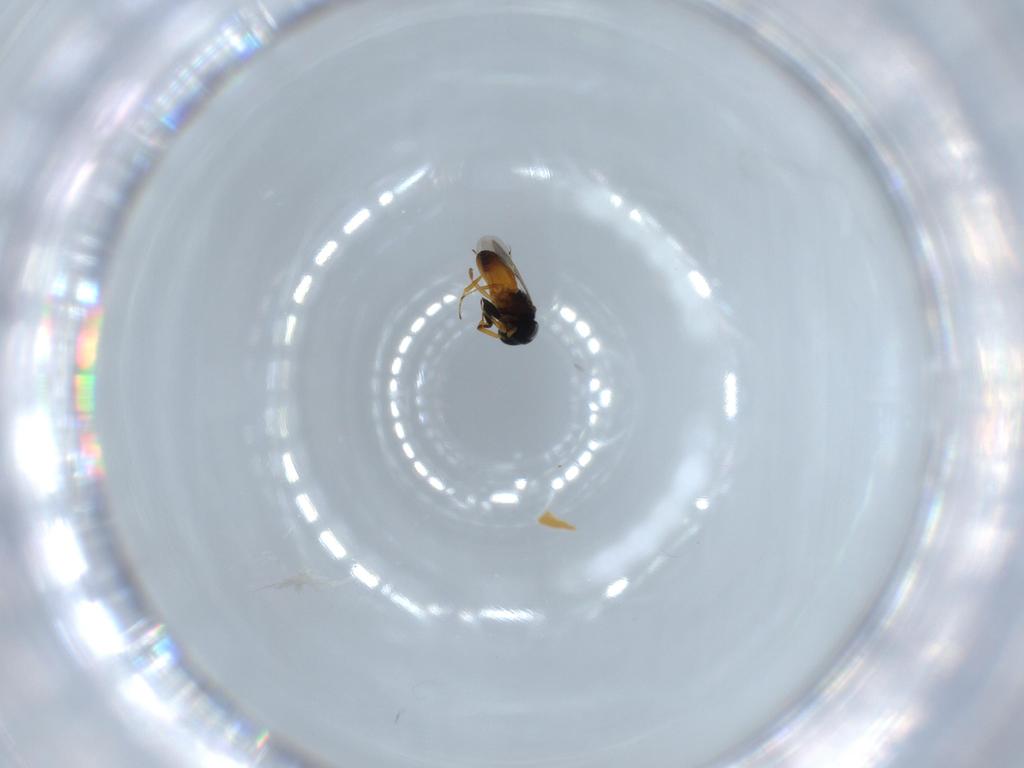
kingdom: Animalia
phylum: Arthropoda
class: Insecta
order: Hymenoptera
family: Scelionidae
